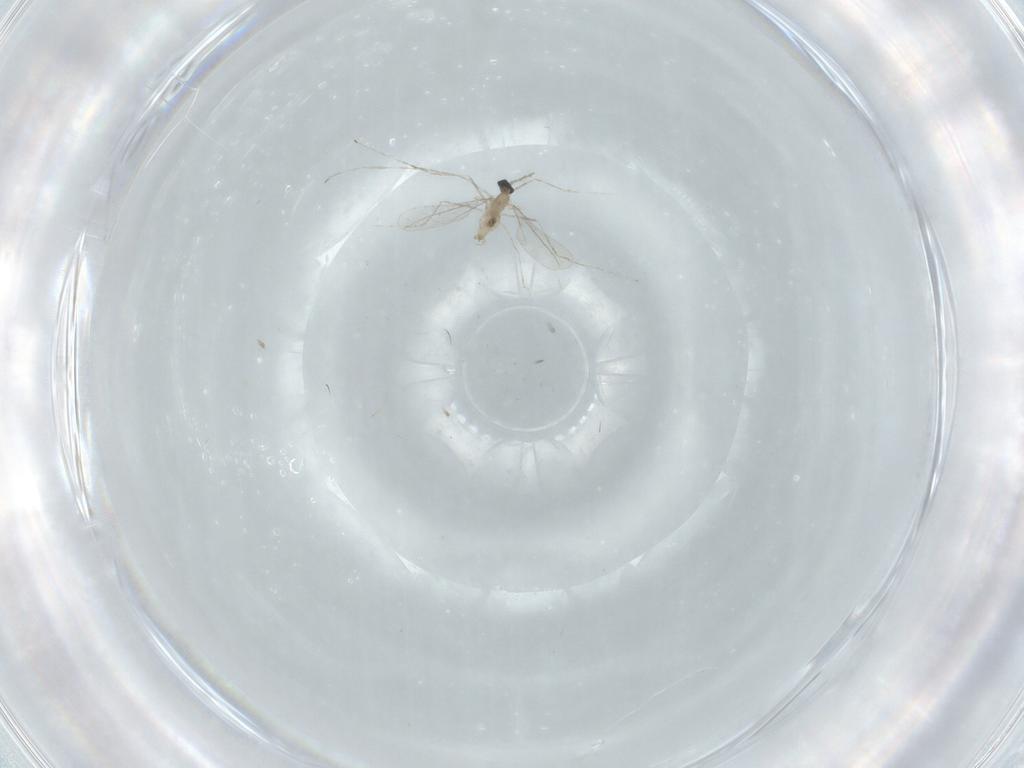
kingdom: Animalia
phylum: Arthropoda
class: Insecta
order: Diptera
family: Cecidomyiidae
